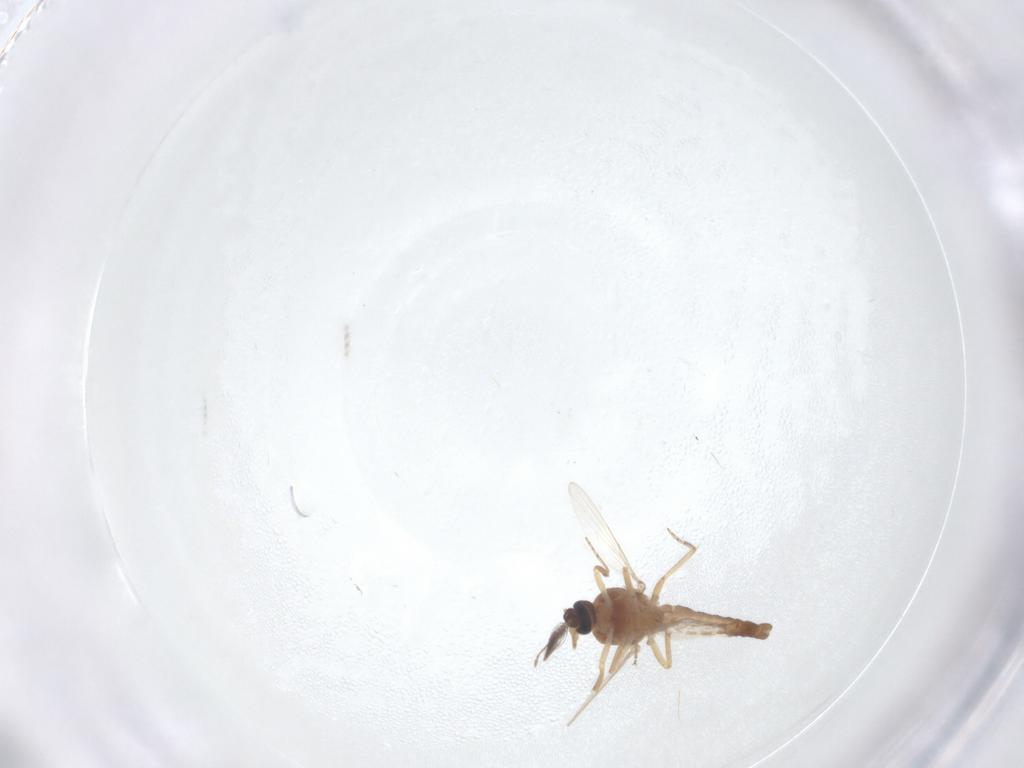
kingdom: Animalia
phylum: Arthropoda
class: Insecta
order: Diptera
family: Ceratopogonidae
